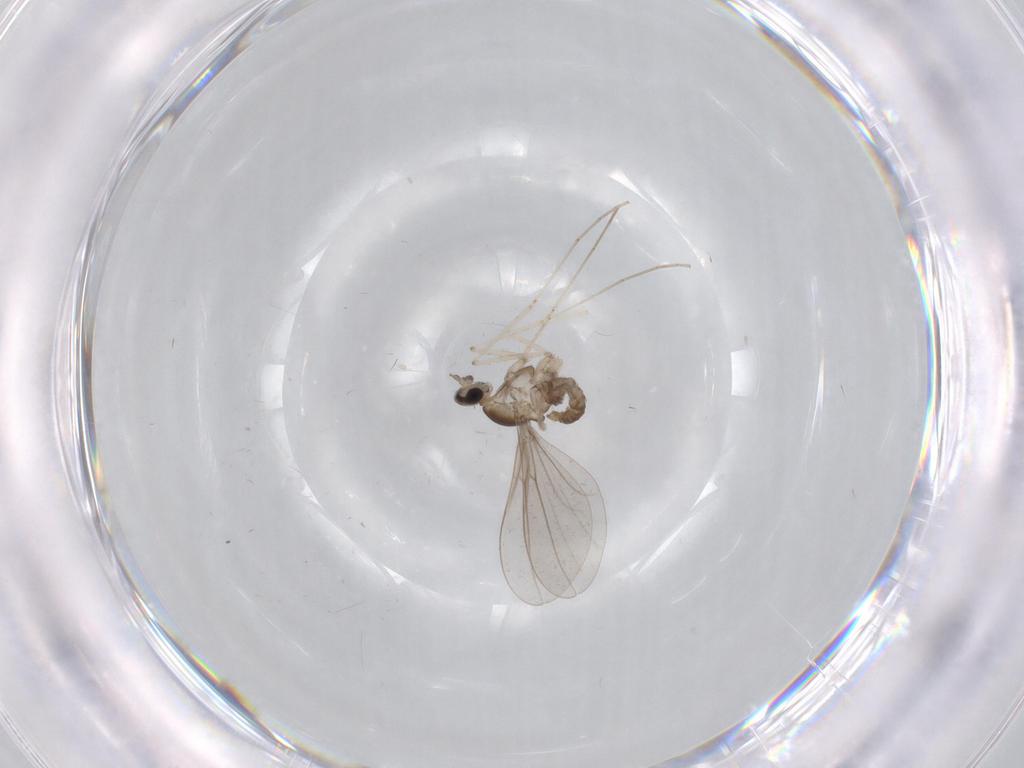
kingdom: Animalia
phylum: Arthropoda
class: Insecta
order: Diptera
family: Cecidomyiidae
